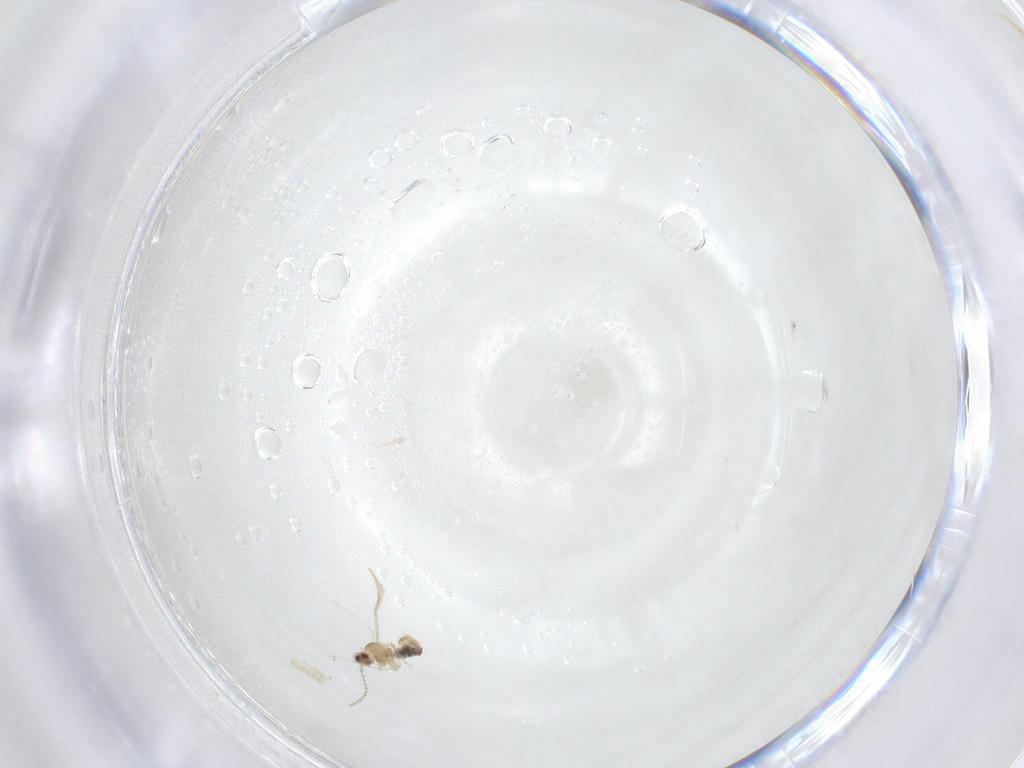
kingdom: Animalia
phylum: Arthropoda
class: Insecta
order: Diptera
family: Cecidomyiidae
